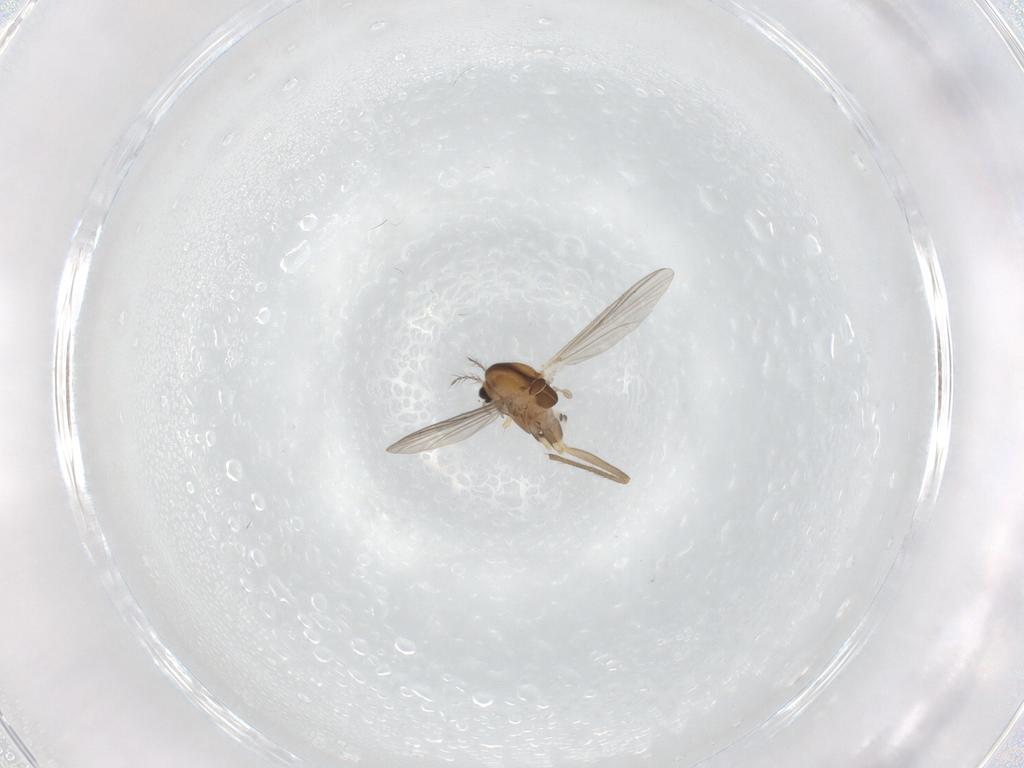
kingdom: Animalia
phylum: Arthropoda
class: Insecta
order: Diptera
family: Chironomidae
